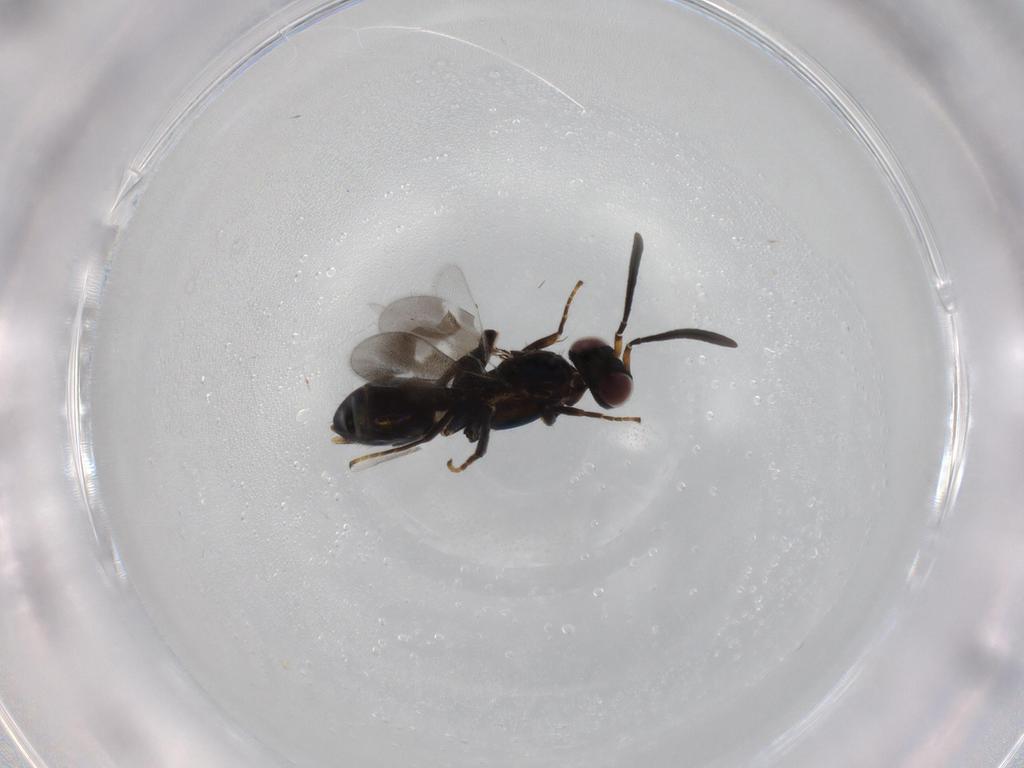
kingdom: Animalia
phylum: Arthropoda
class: Insecta
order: Hymenoptera
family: Eupelmidae
